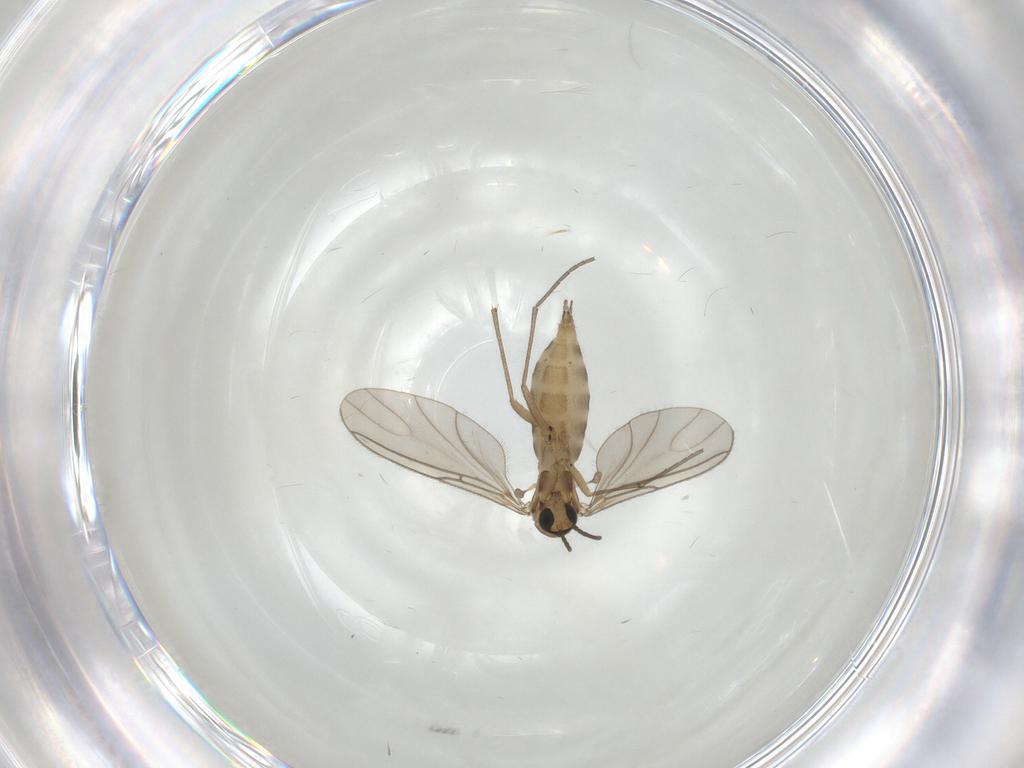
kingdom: Animalia
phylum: Arthropoda
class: Insecta
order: Diptera
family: Sciaridae
